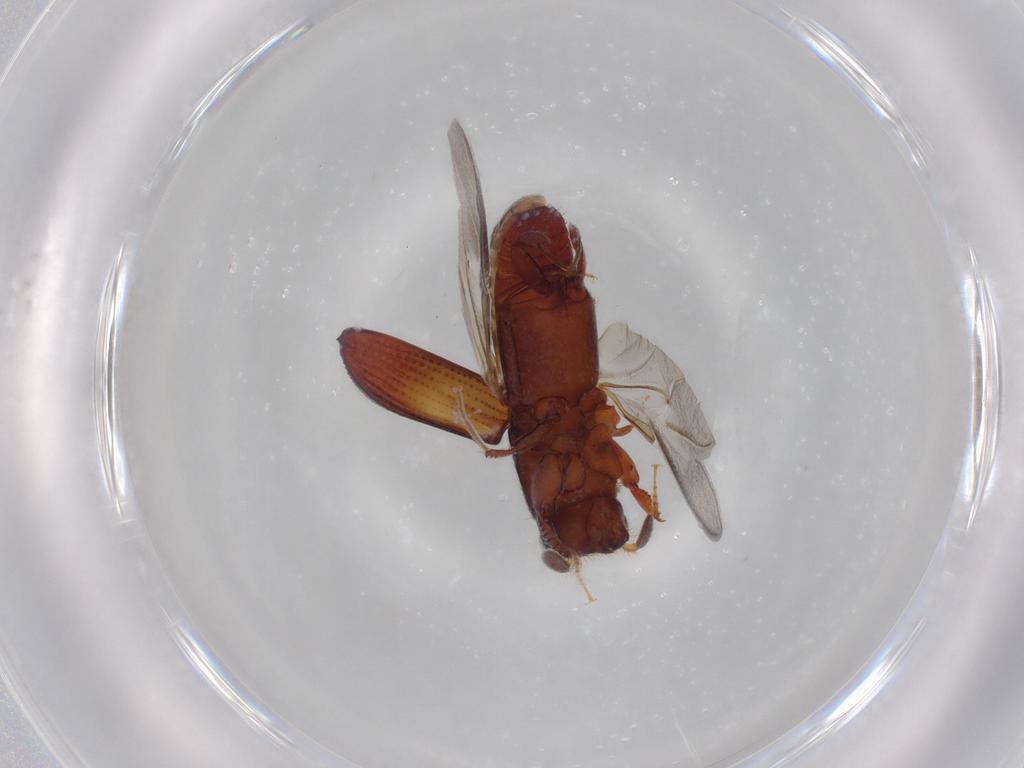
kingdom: Animalia
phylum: Arthropoda
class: Insecta
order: Coleoptera
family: Curculionidae
